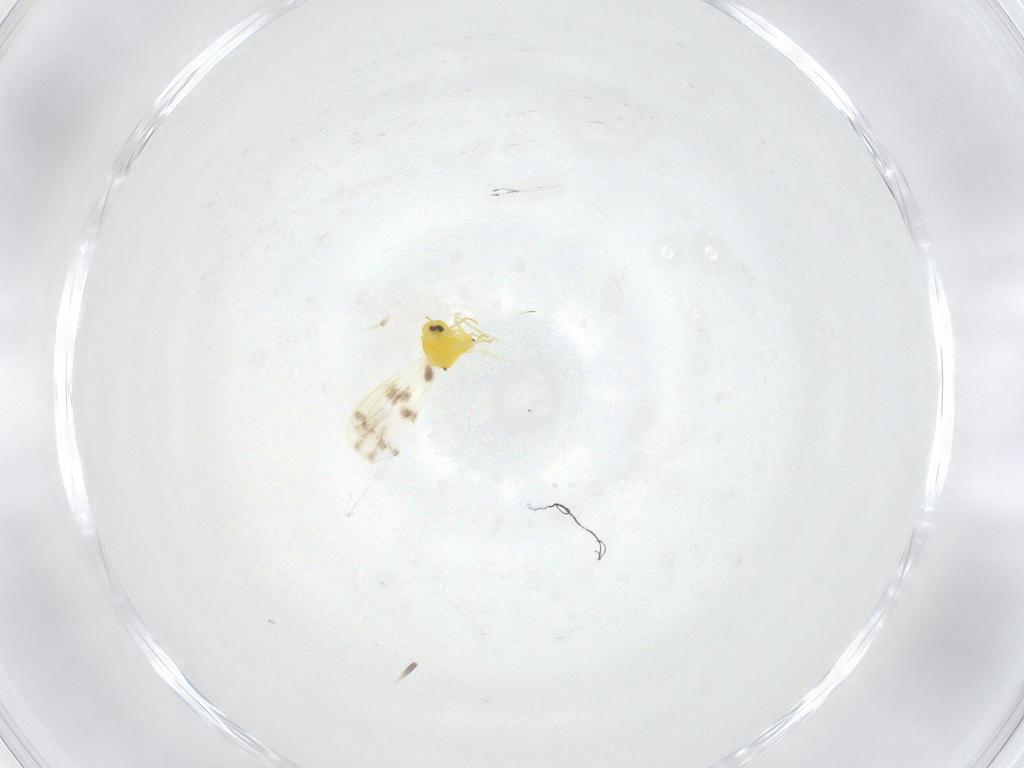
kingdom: Animalia
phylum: Arthropoda
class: Insecta
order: Hemiptera
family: Aleyrodidae
